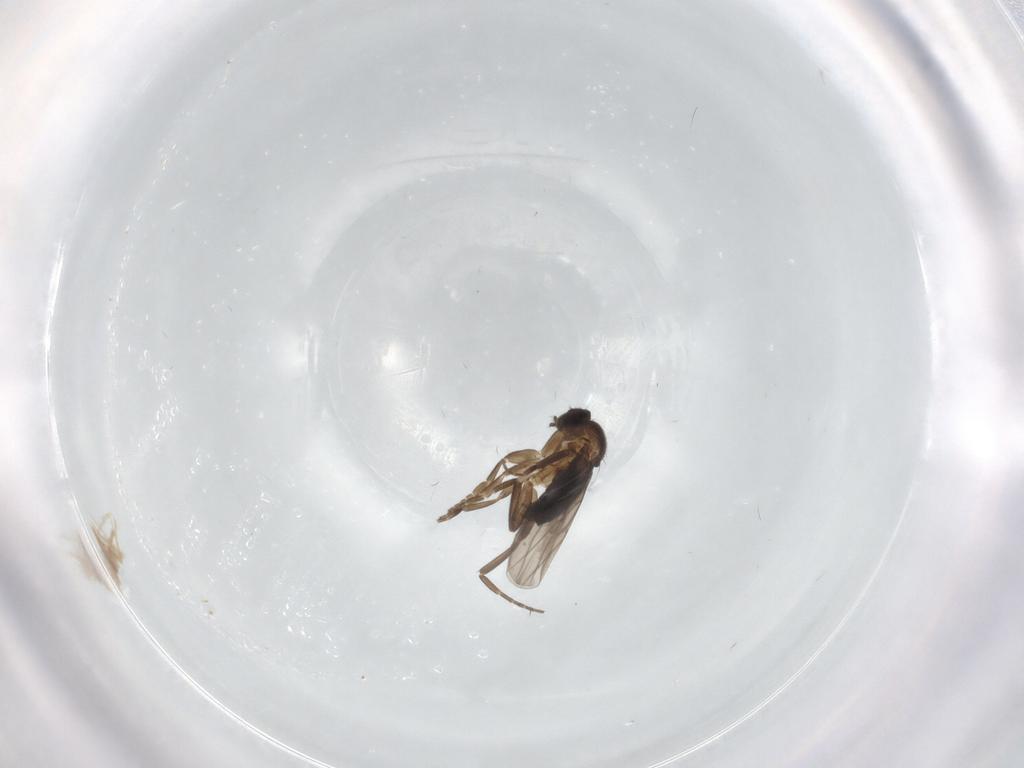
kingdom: Animalia
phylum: Arthropoda
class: Insecta
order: Diptera
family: Phoridae
